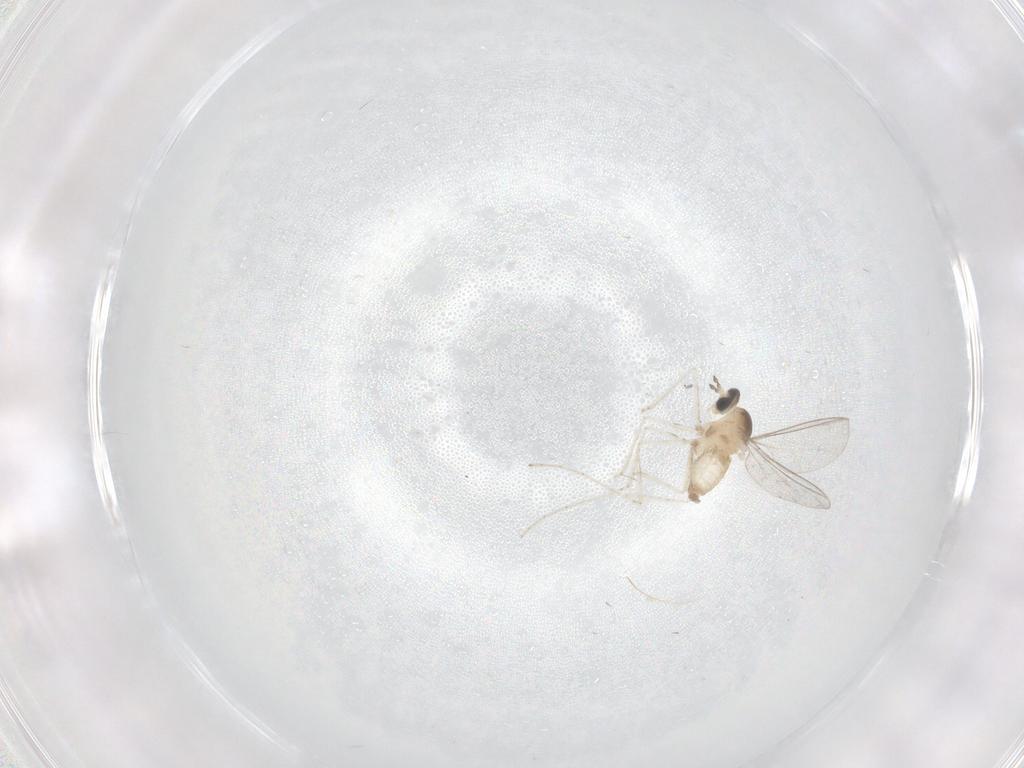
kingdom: Animalia
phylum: Arthropoda
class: Insecta
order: Diptera
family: Cecidomyiidae
